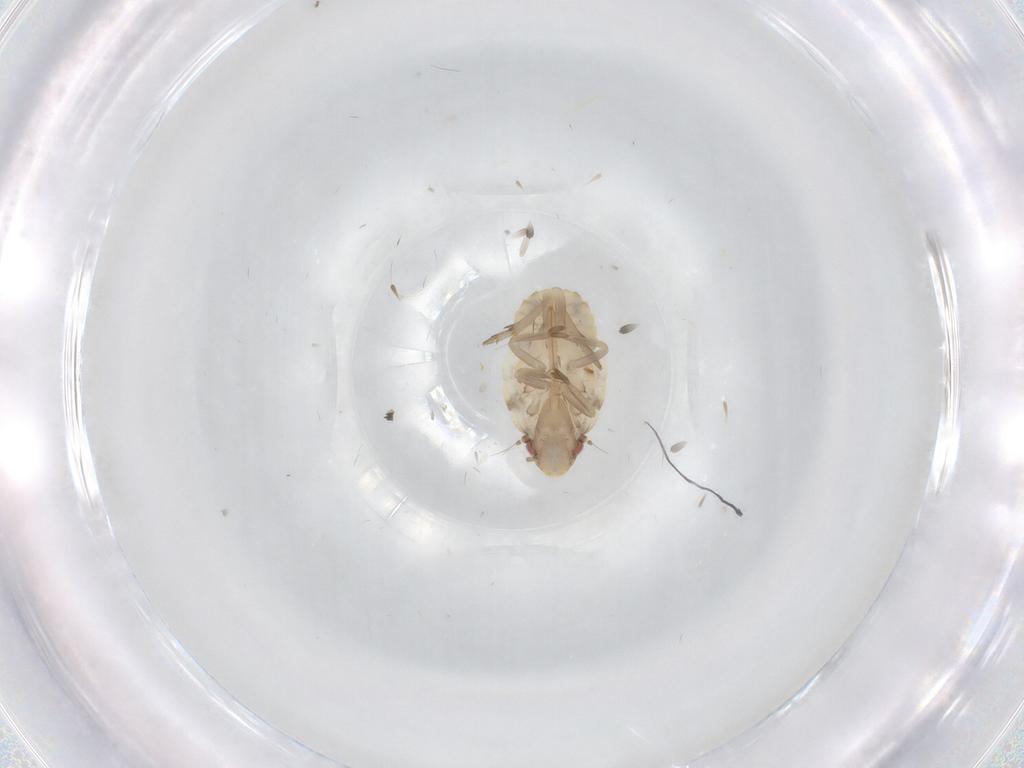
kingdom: Animalia
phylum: Arthropoda
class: Insecta
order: Hemiptera
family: Flatidae
